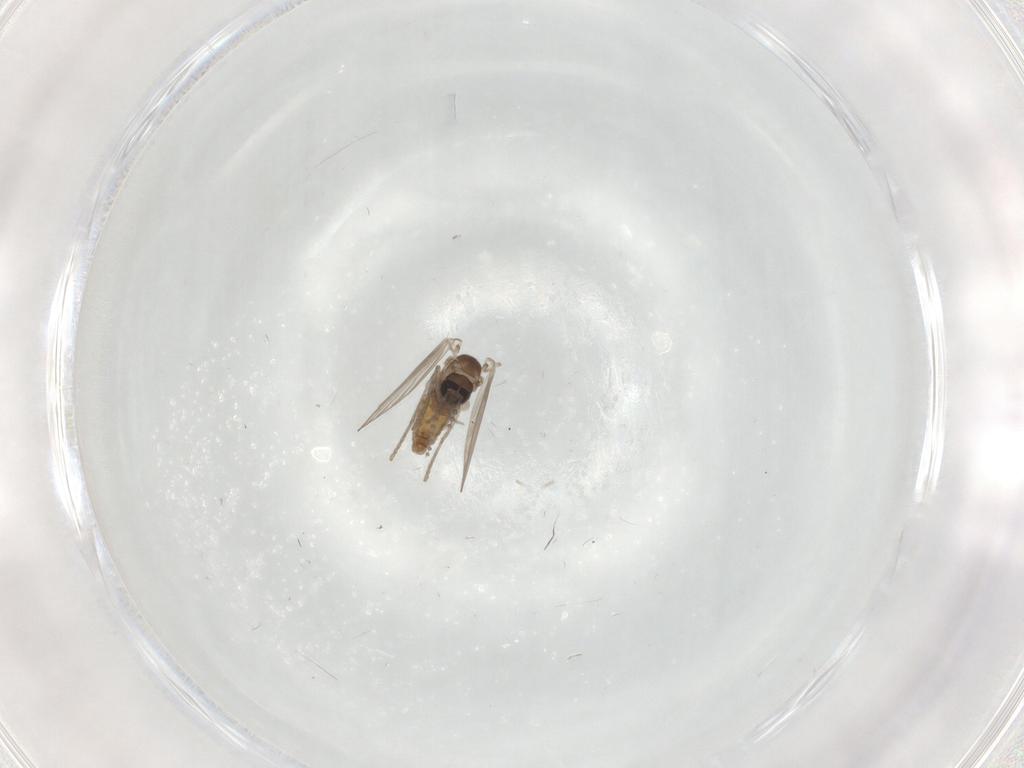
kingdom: Animalia
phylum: Arthropoda
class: Insecta
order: Diptera
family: Psychodidae
